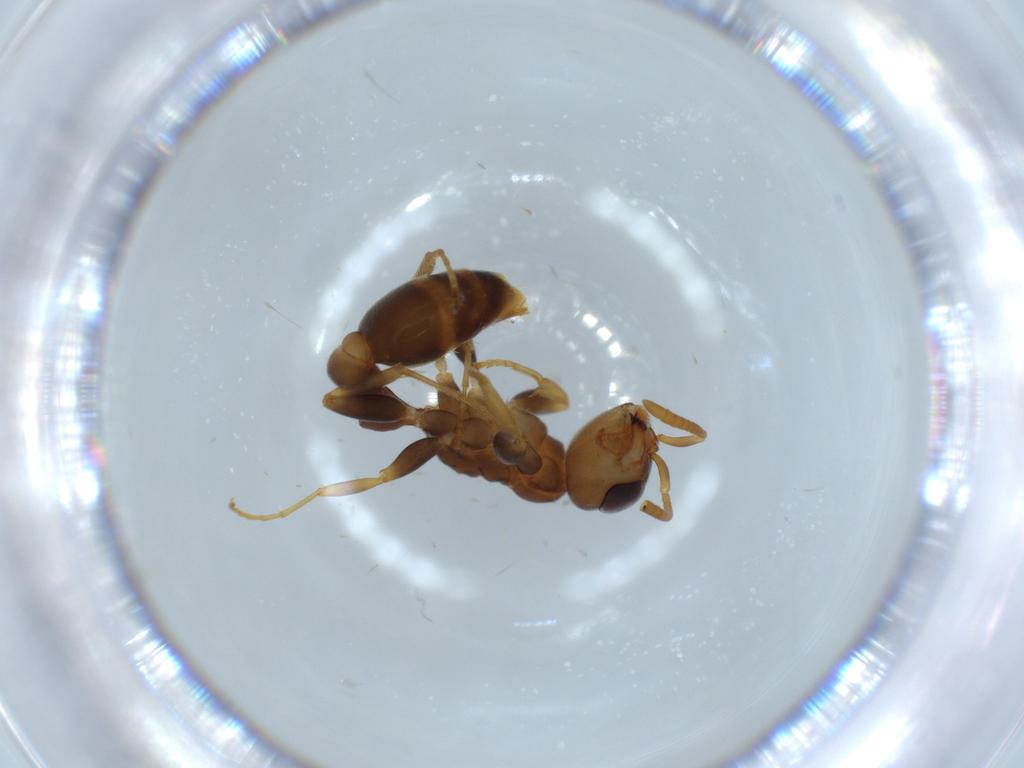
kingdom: Animalia
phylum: Arthropoda
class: Insecta
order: Hymenoptera
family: Formicidae
